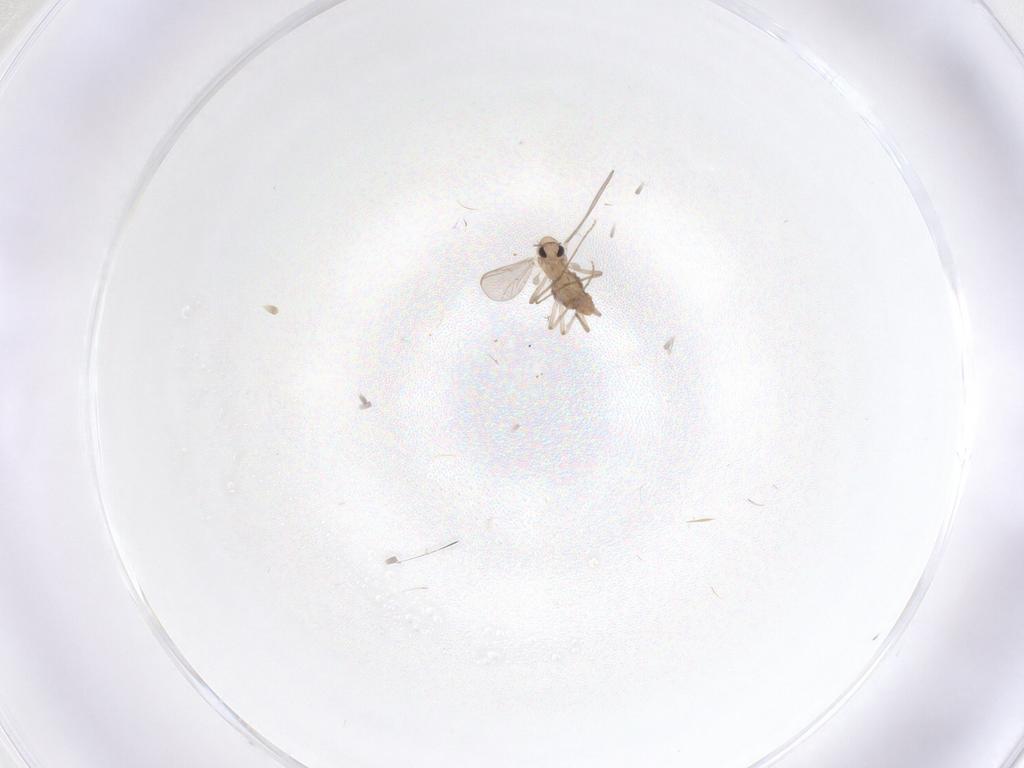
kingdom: Animalia
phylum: Arthropoda
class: Insecta
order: Diptera
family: Chironomidae
